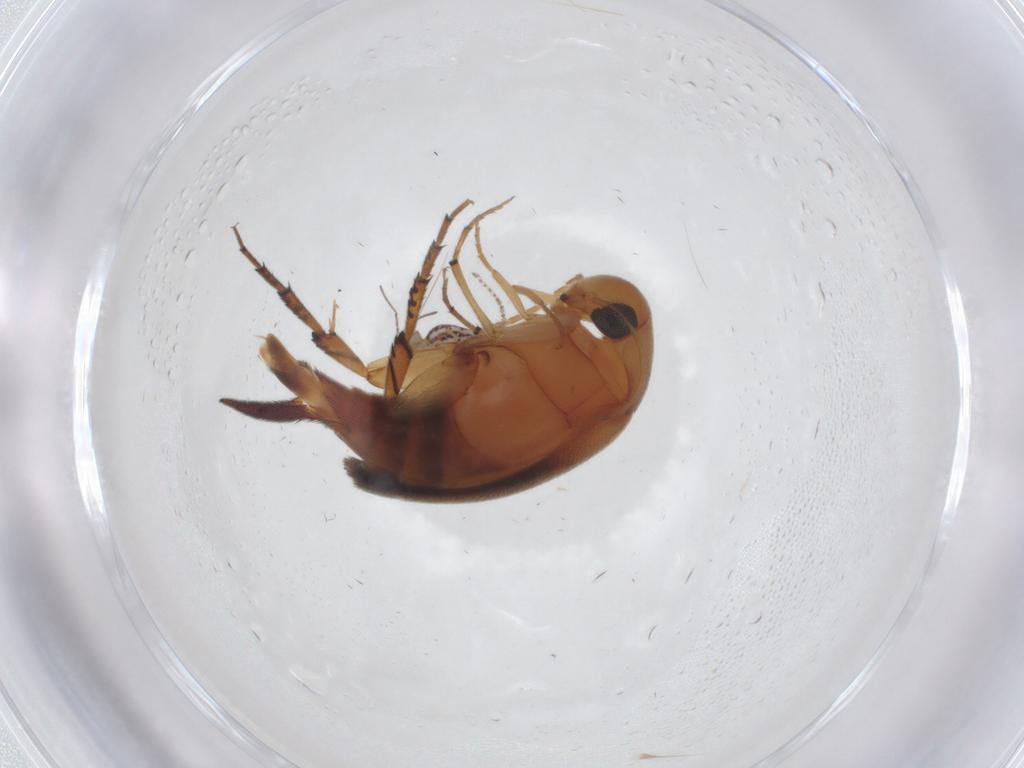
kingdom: Animalia
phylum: Arthropoda
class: Insecta
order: Coleoptera
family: Mordellidae
